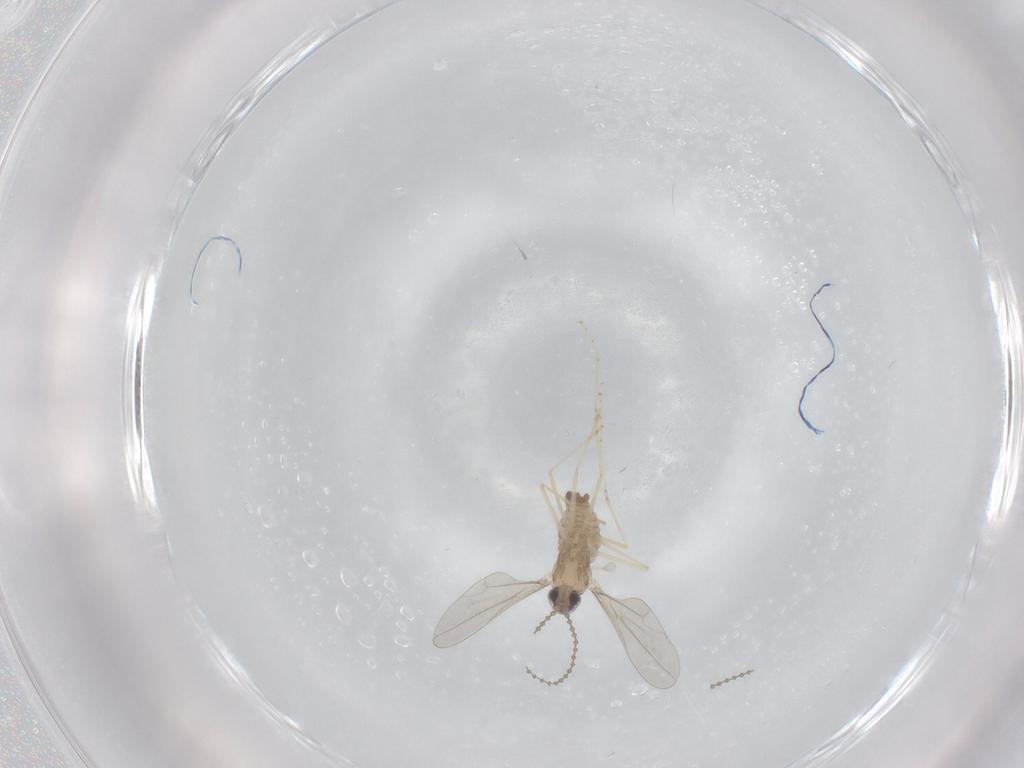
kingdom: Animalia
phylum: Arthropoda
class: Insecta
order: Diptera
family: Cecidomyiidae
